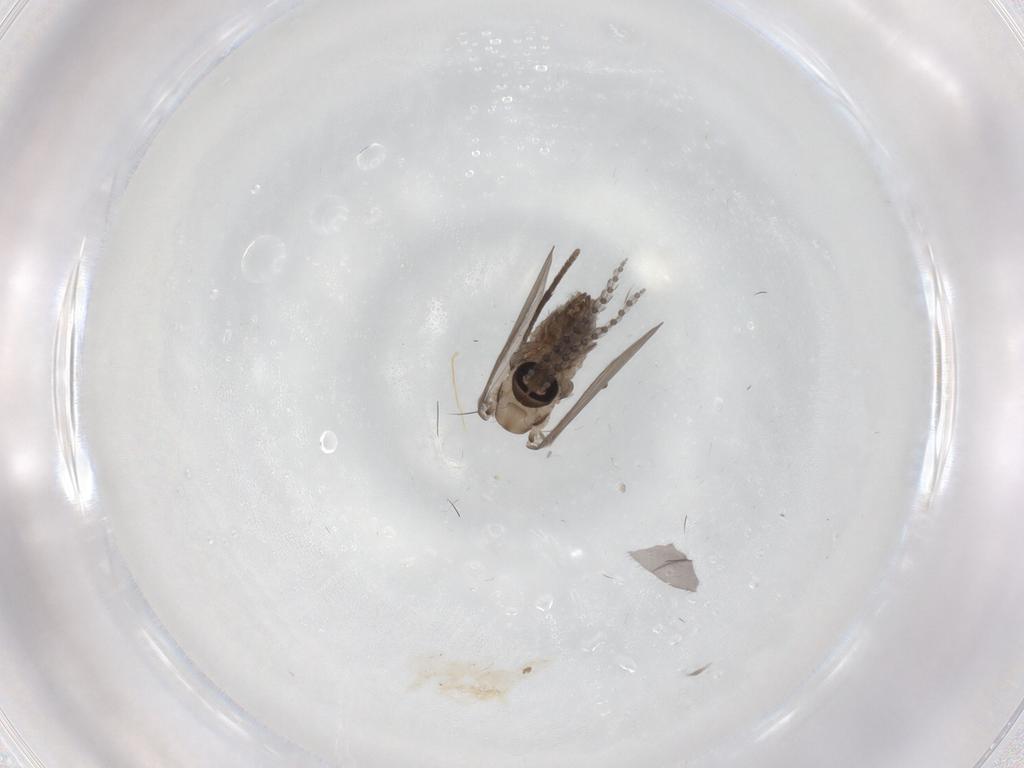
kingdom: Animalia
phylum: Arthropoda
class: Insecta
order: Diptera
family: Psychodidae
